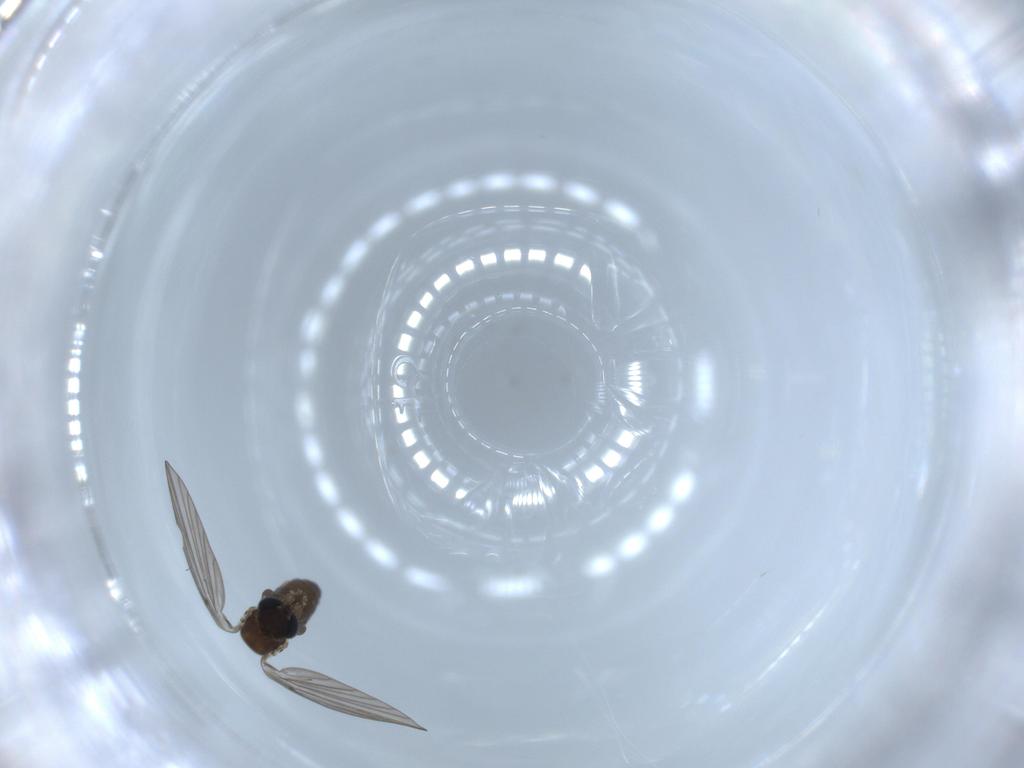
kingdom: Animalia
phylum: Arthropoda
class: Insecta
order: Diptera
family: Psychodidae
